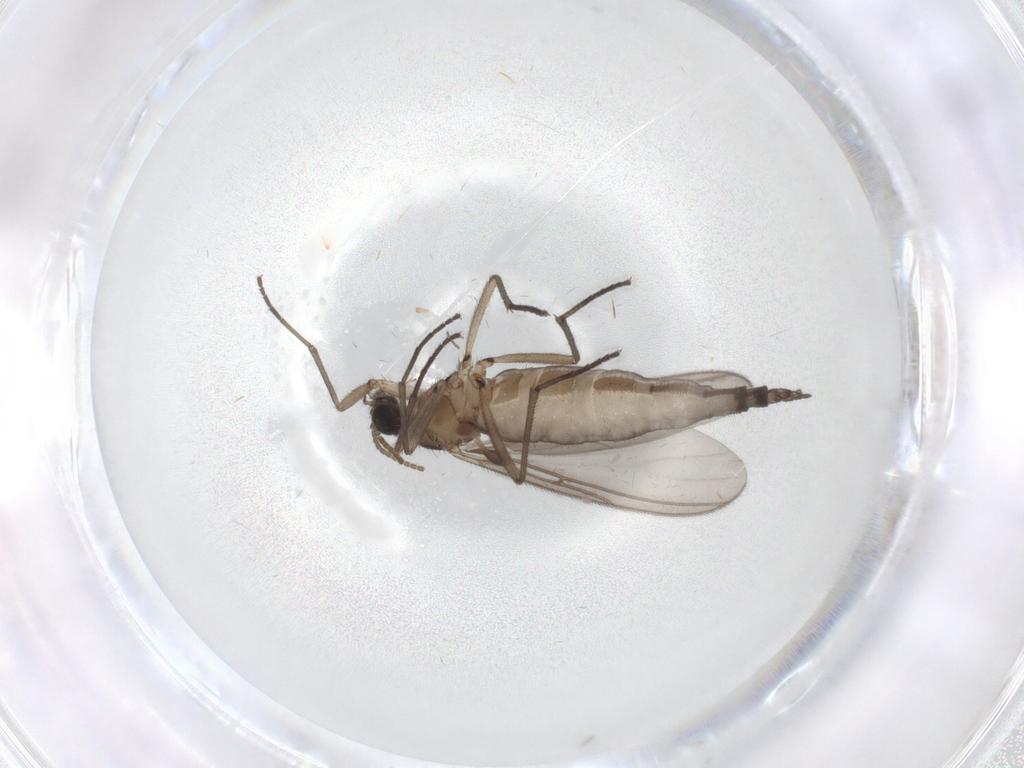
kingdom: Animalia
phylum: Arthropoda
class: Insecta
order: Diptera
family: Cecidomyiidae
